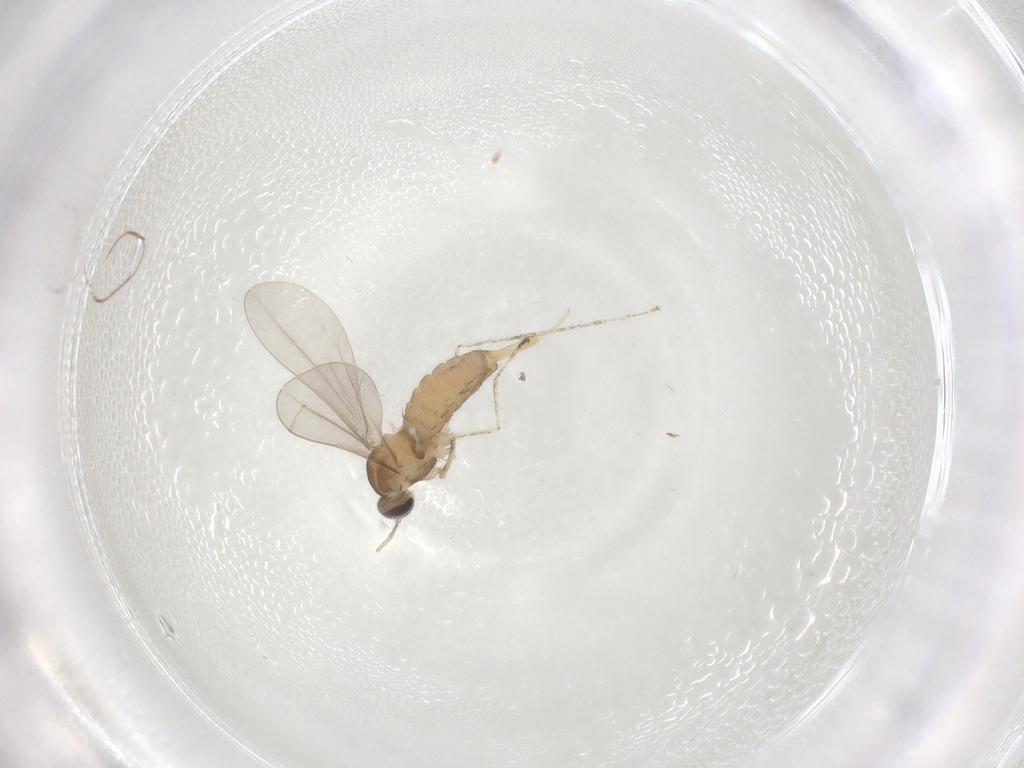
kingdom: Animalia
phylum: Arthropoda
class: Insecta
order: Diptera
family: Cecidomyiidae
